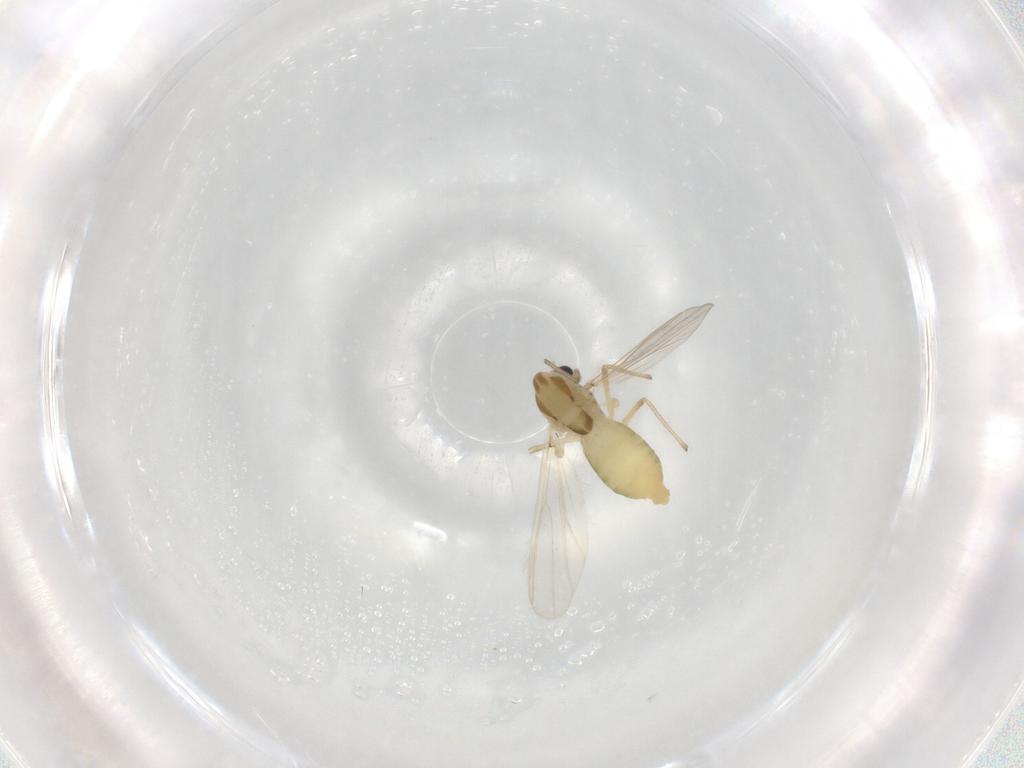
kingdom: Animalia
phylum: Arthropoda
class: Insecta
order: Diptera
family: Chironomidae
